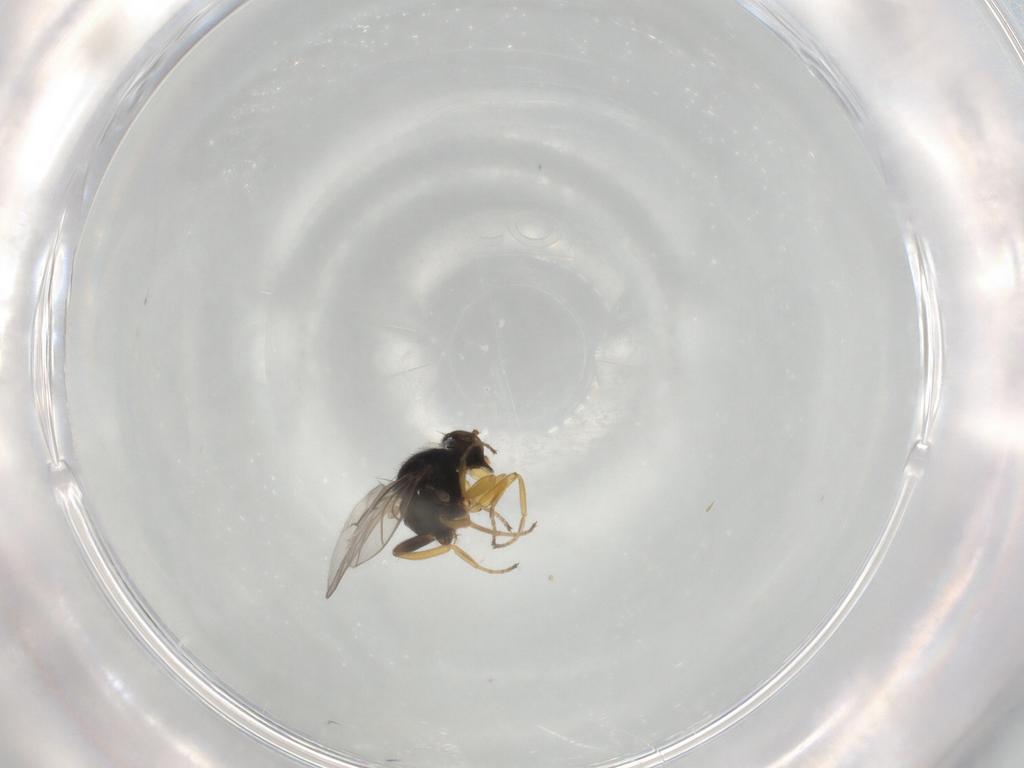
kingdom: Animalia
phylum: Arthropoda
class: Insecta
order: Diptera
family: Hybotidae
